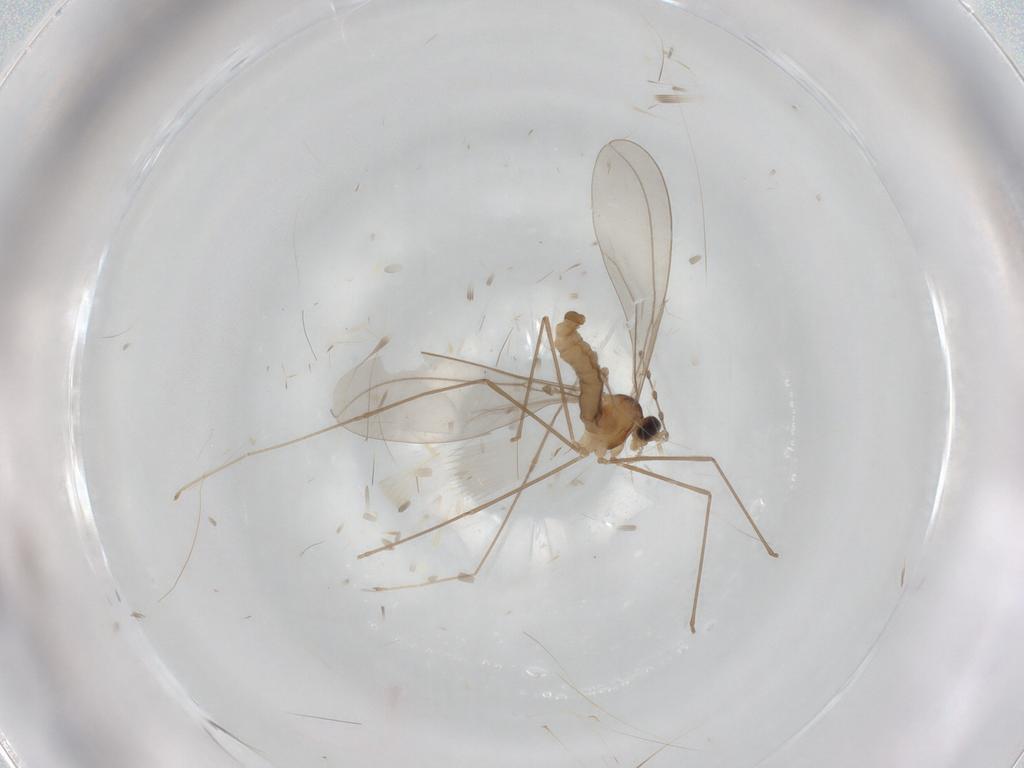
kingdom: Animalia
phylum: Arthropoda
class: Insecta
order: Diptera
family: Cecidomyiidae
